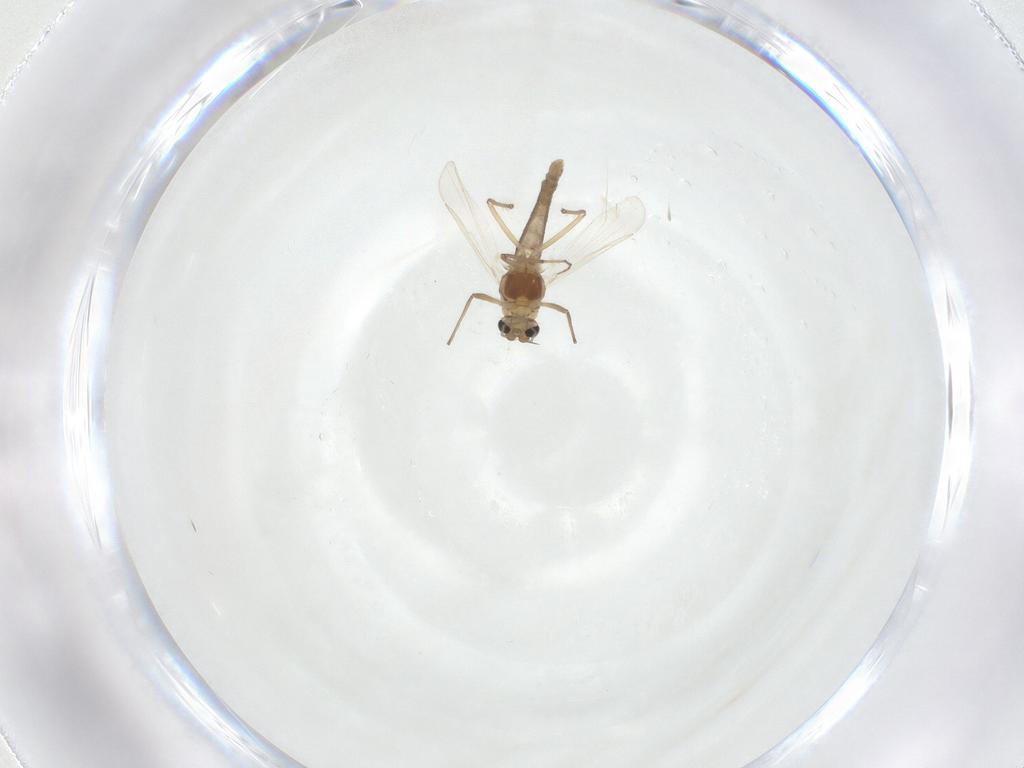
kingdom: Animalia
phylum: Arthropoda
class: Insecta
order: Diptera
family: Chironomidae
